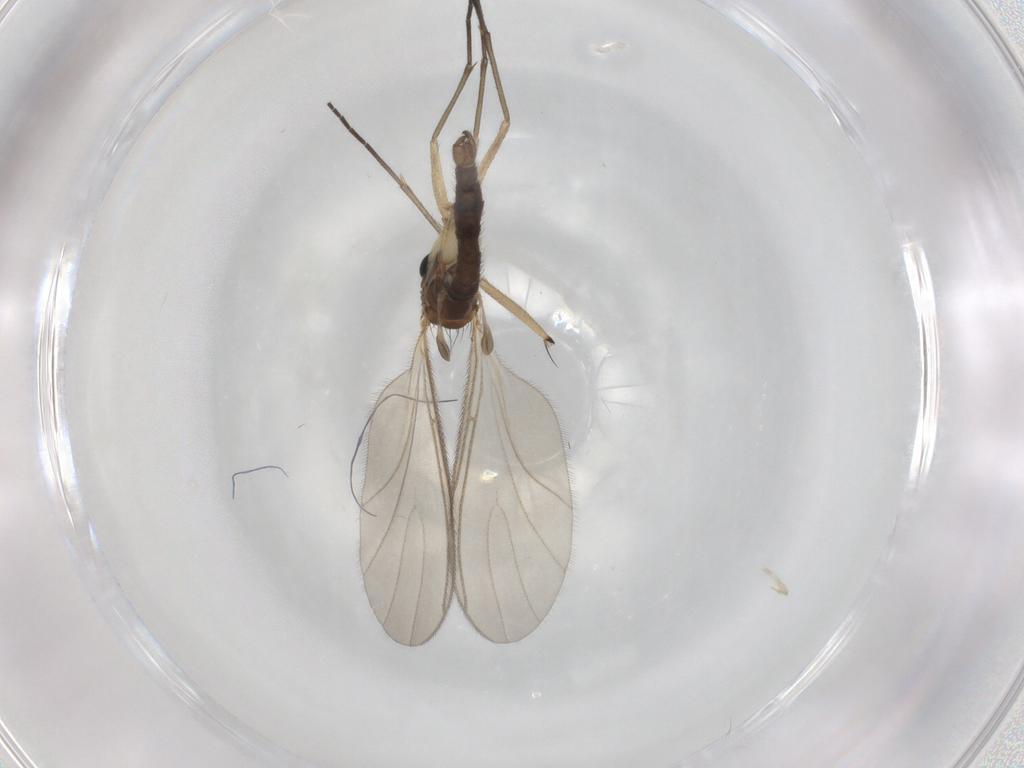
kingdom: Animalia
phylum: Arthropoda
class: Insecta
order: Diptera
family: Sciaridae
